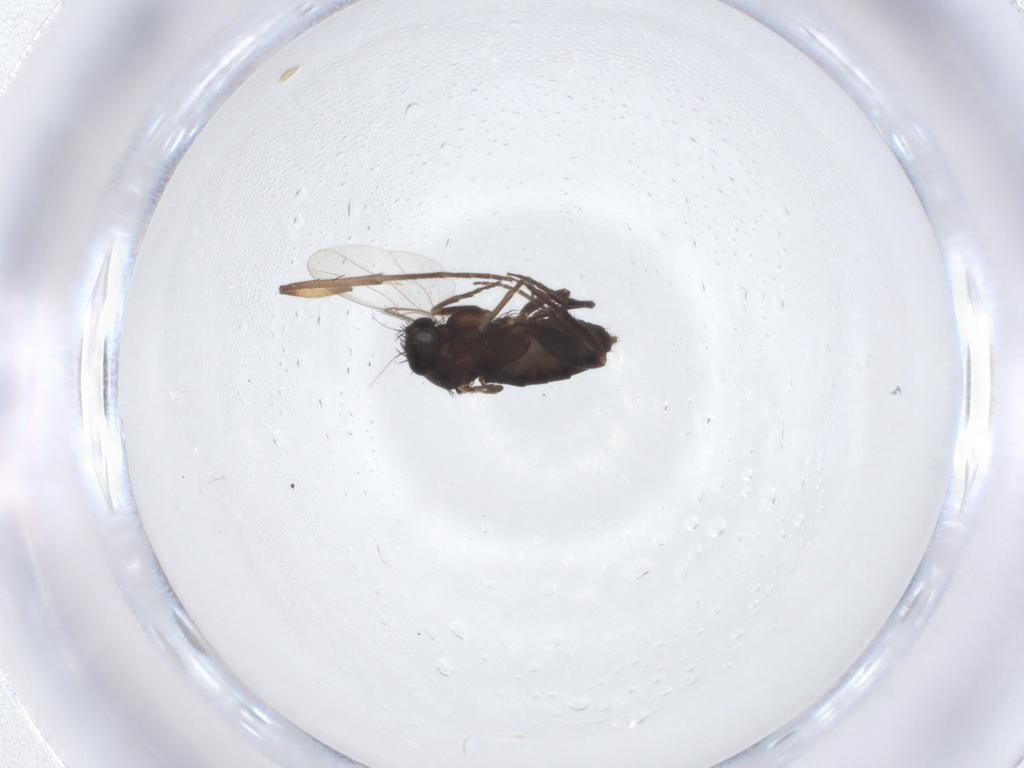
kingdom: Animalia
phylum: Arthropoda
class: Insecta
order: Diptera
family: Phoridae
